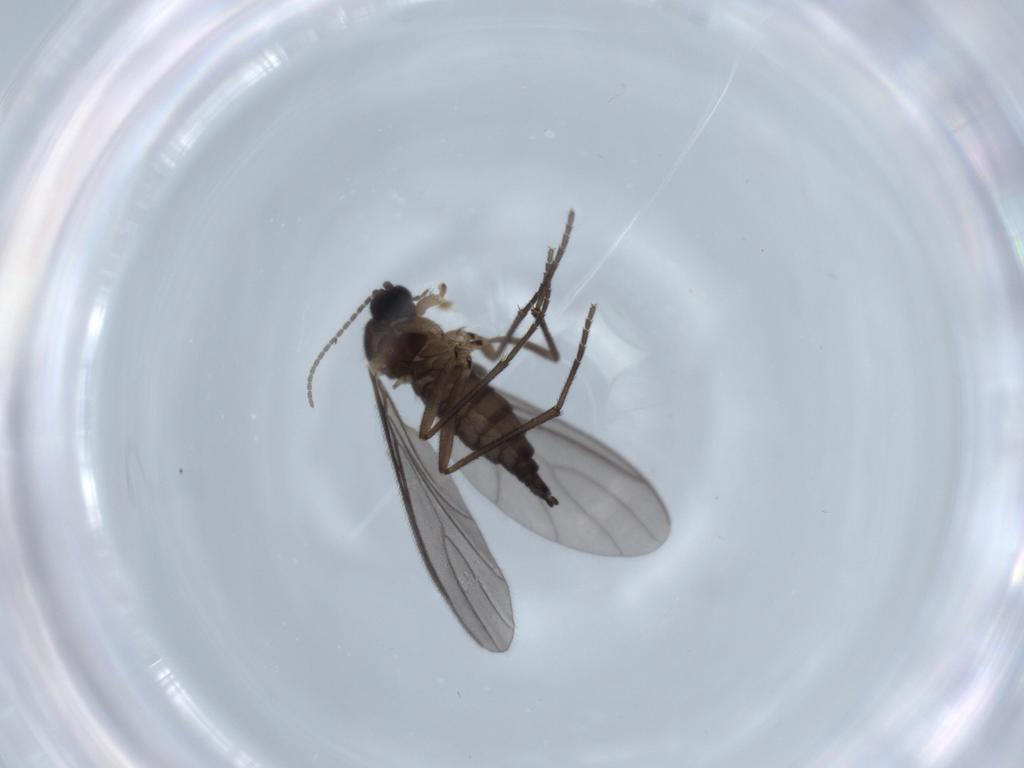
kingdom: Animalia
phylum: Arthropoda
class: Insecta
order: Diptera
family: Sciaridae
